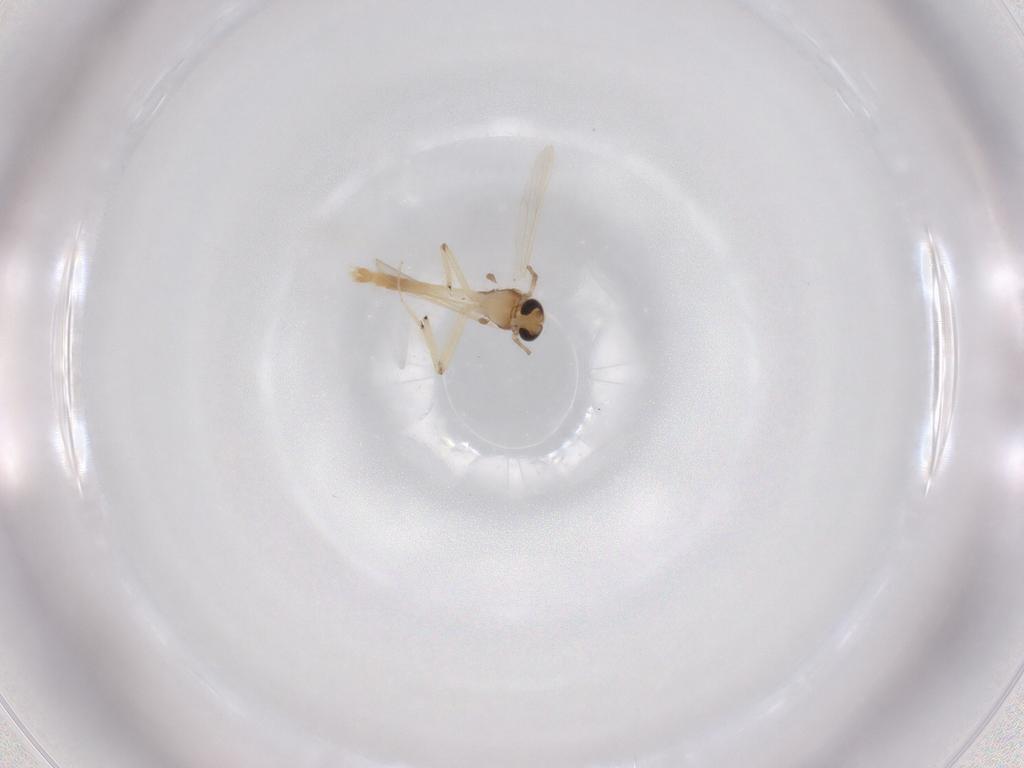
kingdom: Animalia
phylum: Arthropoda
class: Insecta
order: Diptera
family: Chironomidae
